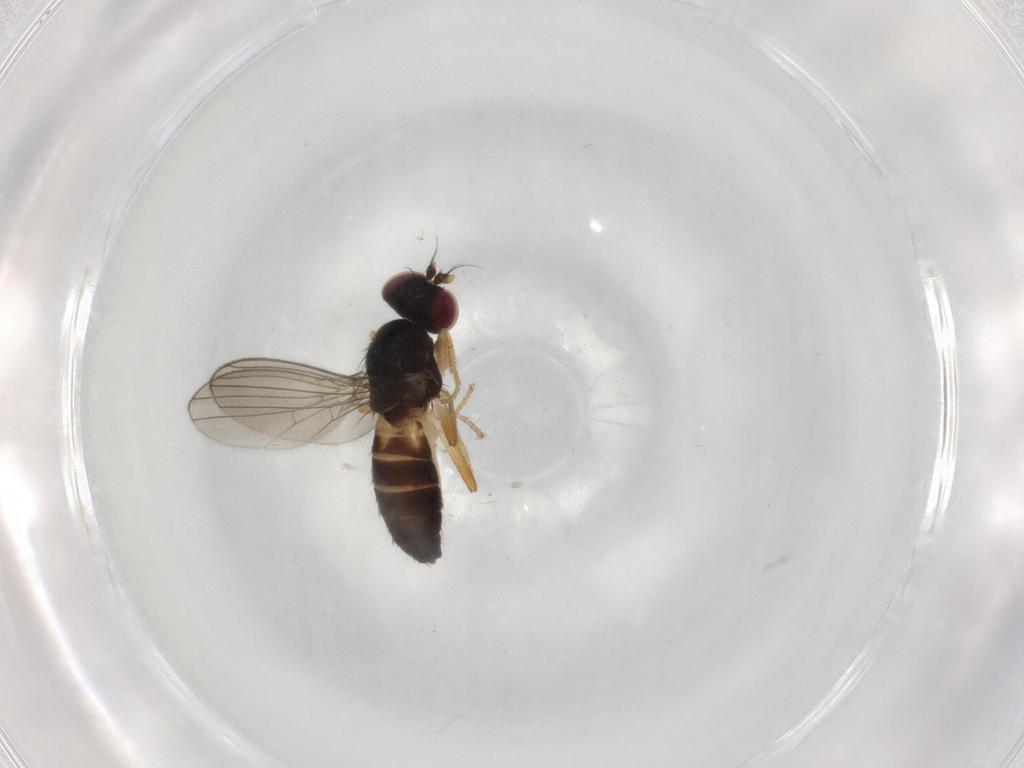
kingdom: Animalia
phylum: Arthropoda
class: Insecta
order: Diptera
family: Anthomyzidae
